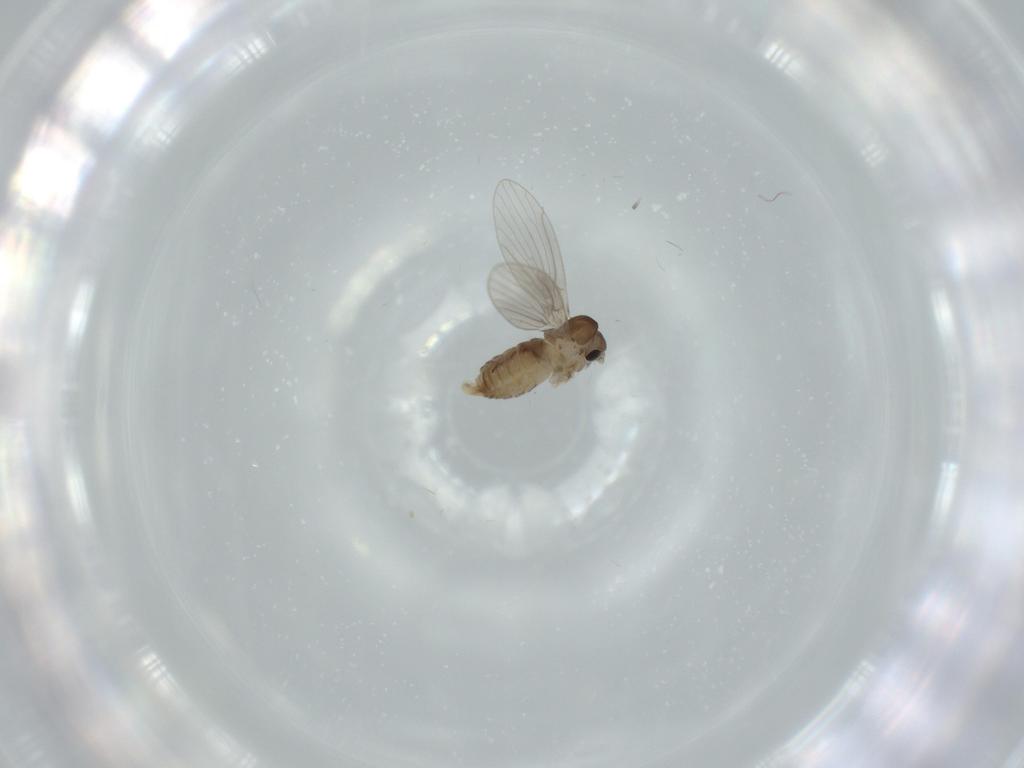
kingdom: Animalia
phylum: Arthropoda
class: Insecta
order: Diptera
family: Psychodidae
